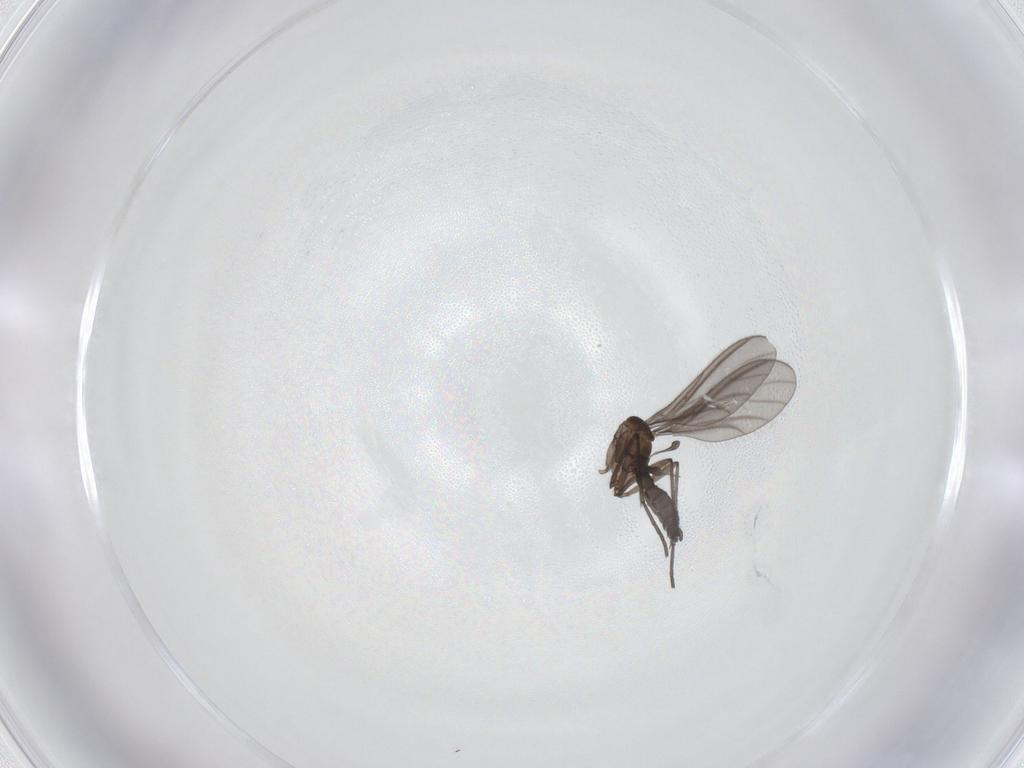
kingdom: Animalia
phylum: Arthropoda
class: Insecta
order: Diptera
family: Sciaridae
